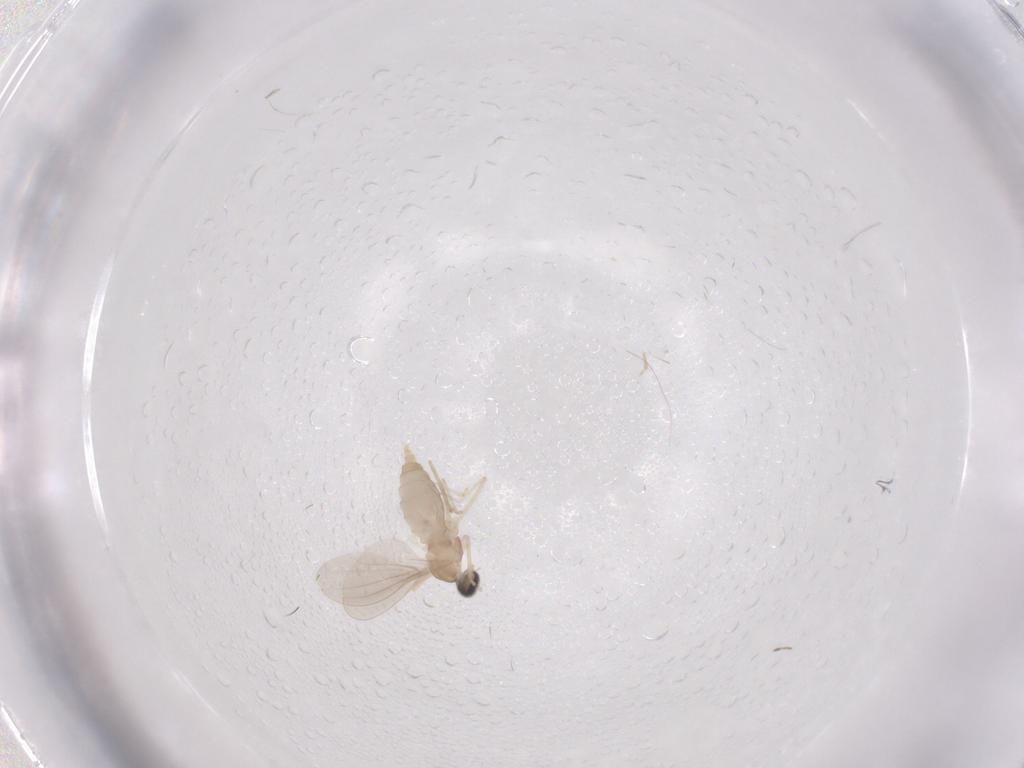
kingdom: Animalia
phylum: Arthropoda
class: Insecta
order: Diptera
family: Cecidomyiidae
